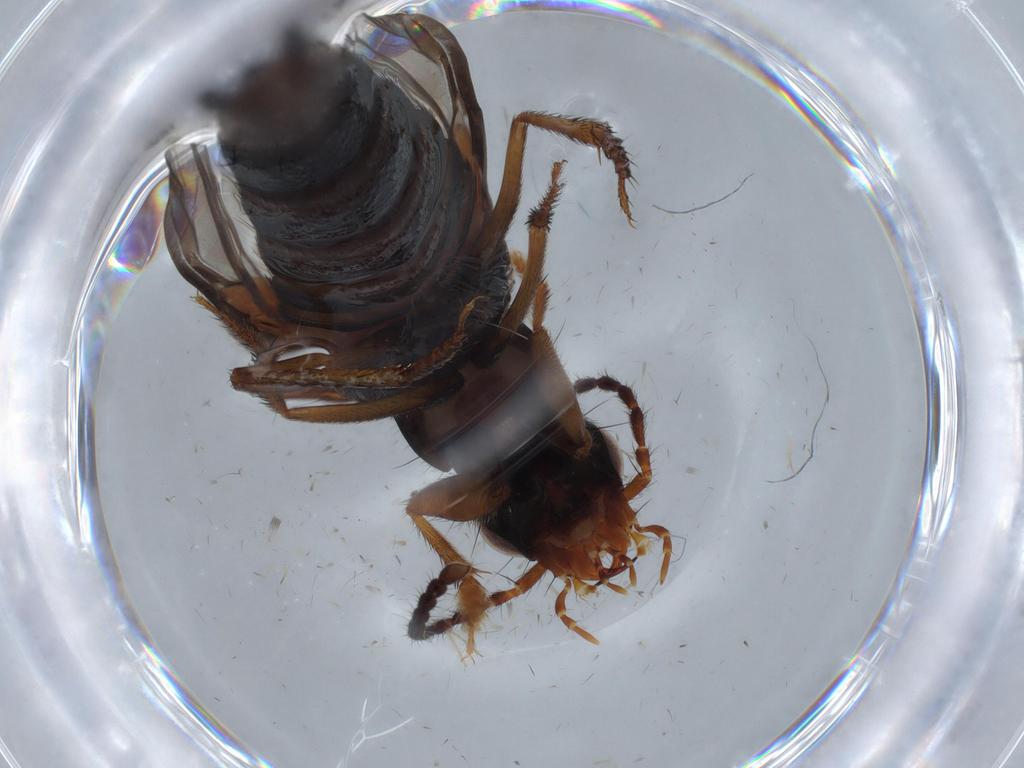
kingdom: Animalia
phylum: Arthropoda
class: Insecta
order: Coleoptera
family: Staphylinidae
